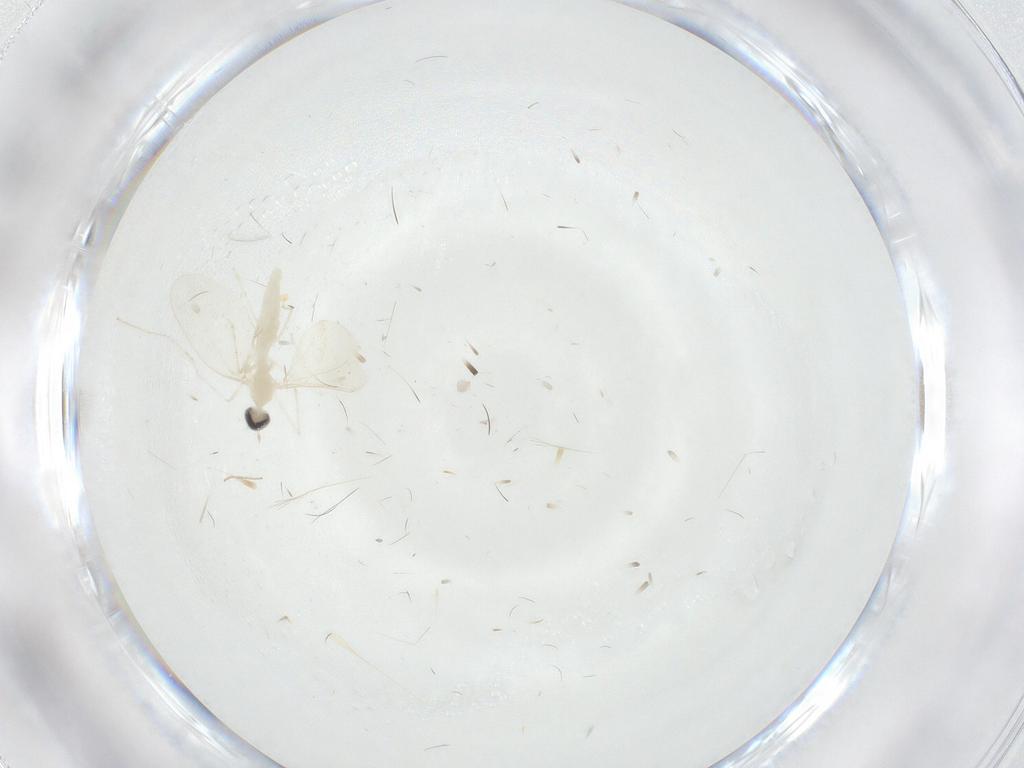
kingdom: Animalia
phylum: Arthropoda
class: Insecta
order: Diptera
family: Cecidomyiidae
